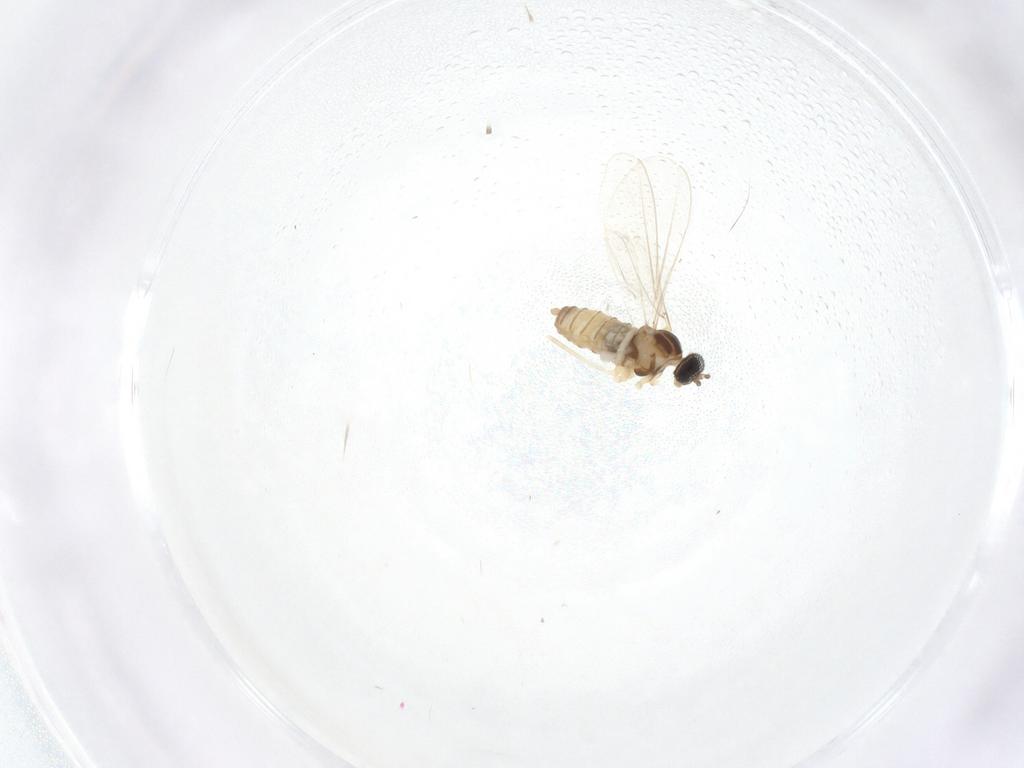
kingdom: Animalia
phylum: Arthropoda
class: Insecta
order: Diptera
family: Cecidomyiidae
